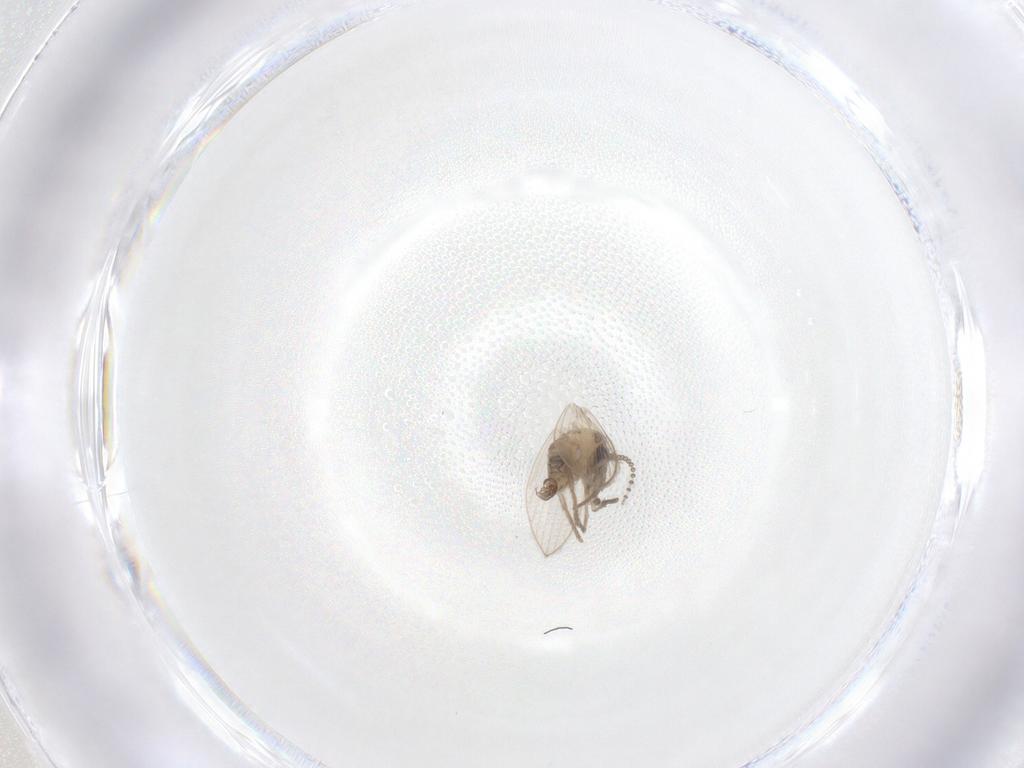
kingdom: Animalia
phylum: Arthropoda
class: Insecta
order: Diptera
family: Psychodidae
